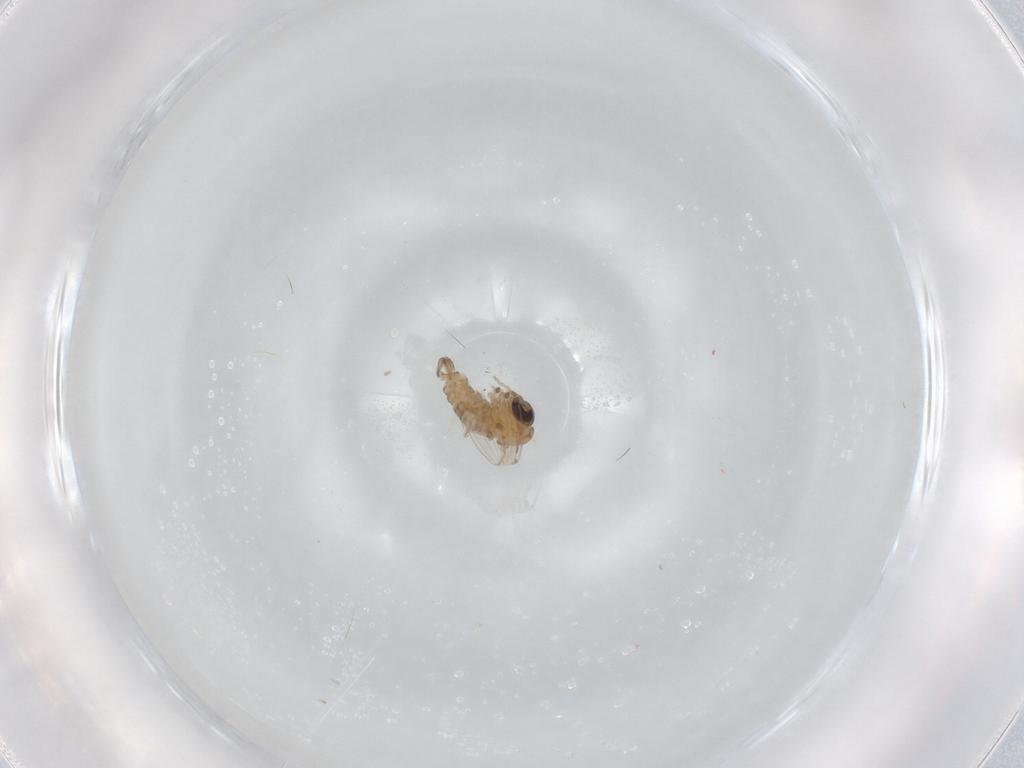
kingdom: Animalia
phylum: Arthropoda
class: Insecta
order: Diptera
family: Psychodidae
